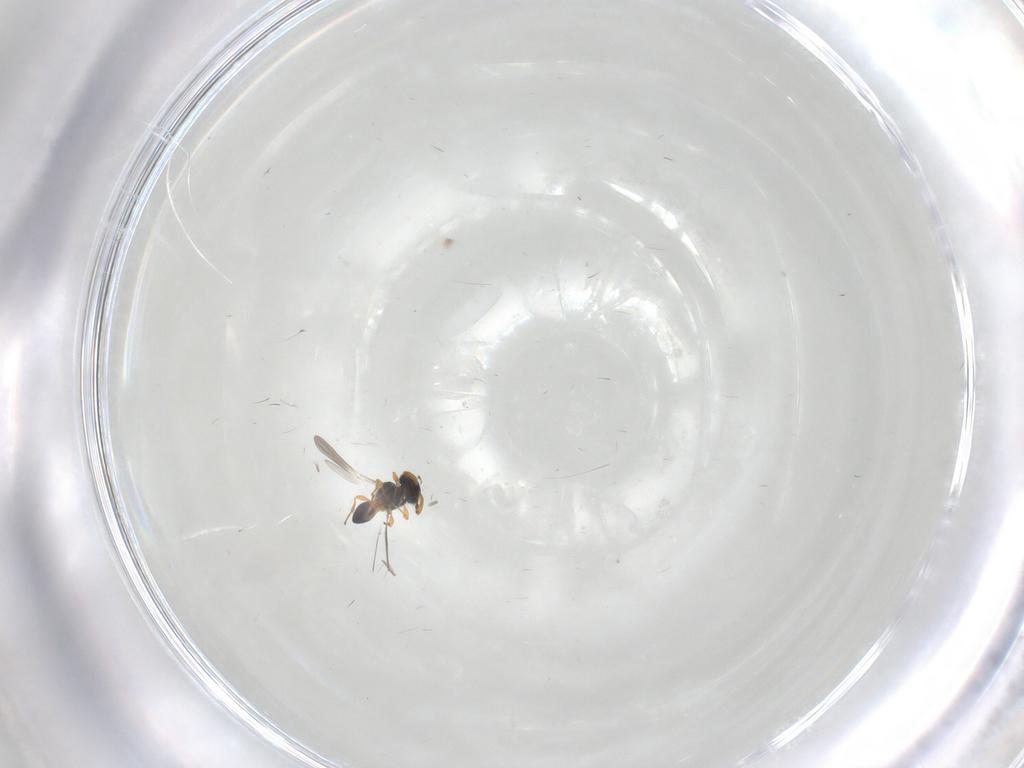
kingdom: Animalia
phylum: Arthropoda
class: Insecta
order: Hymenoptera
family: Platygastridae
